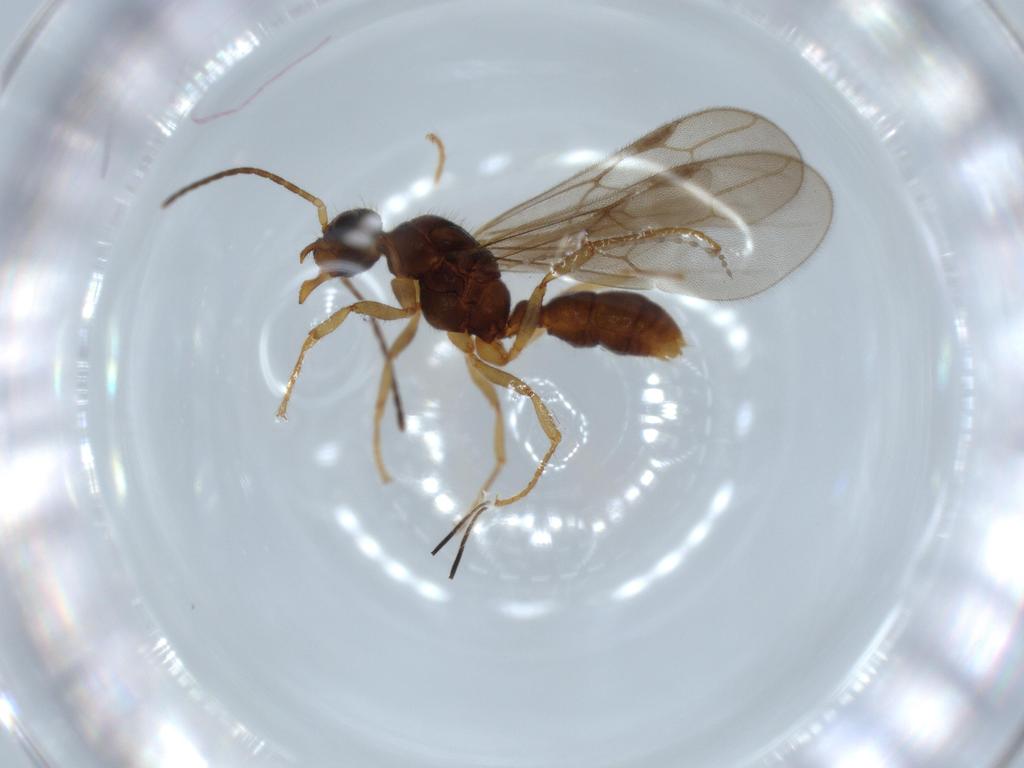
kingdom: Animalia
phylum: Arthropoda
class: Insecta
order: Hymenoptera
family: Formicidae
